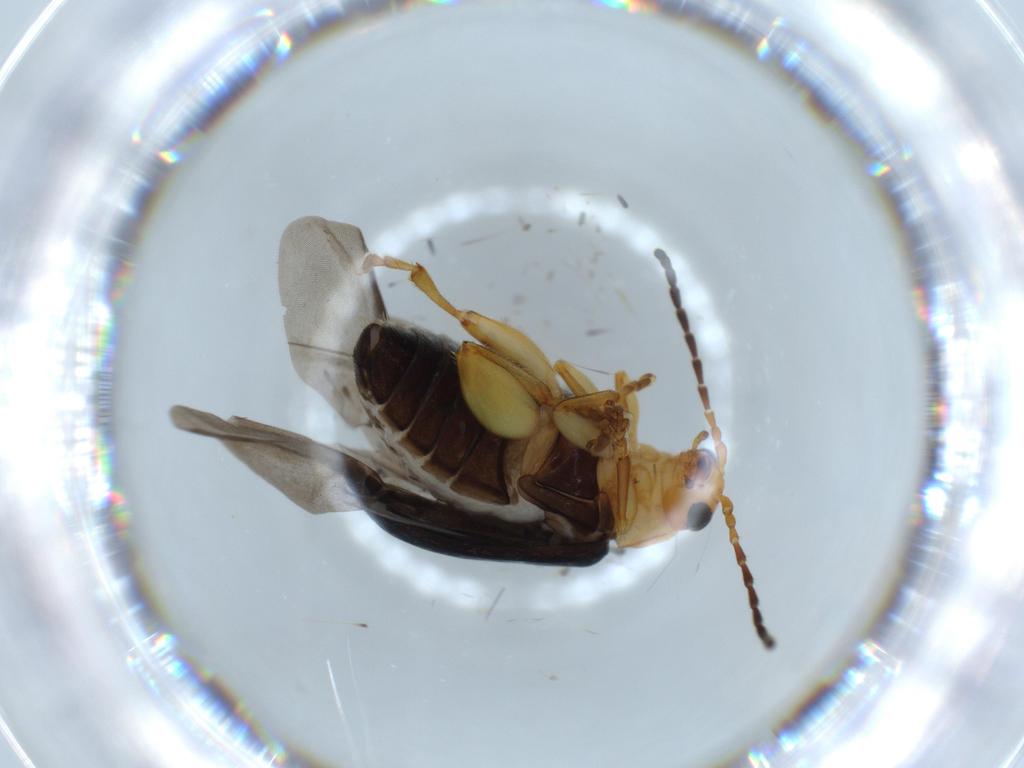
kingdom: Animalia
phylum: Arthropoda
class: Insecta
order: Coleoptera
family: Chrysomelidae
